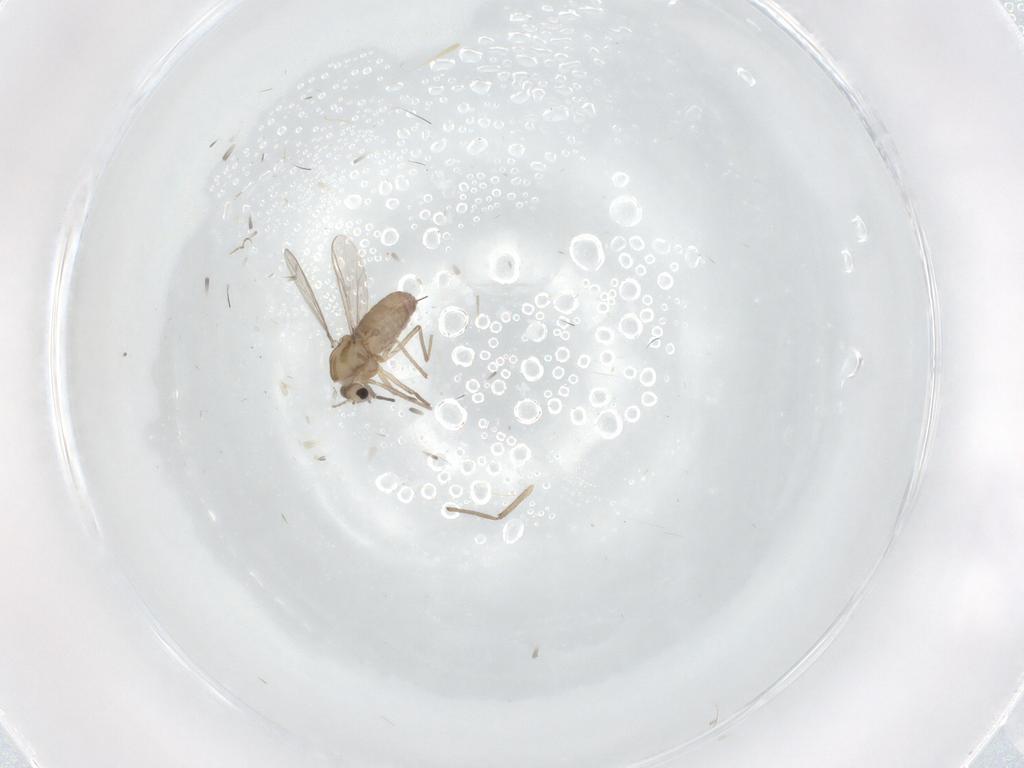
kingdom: Animalia
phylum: Arthropoda
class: Insecta
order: Diptera
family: Chironomidae
